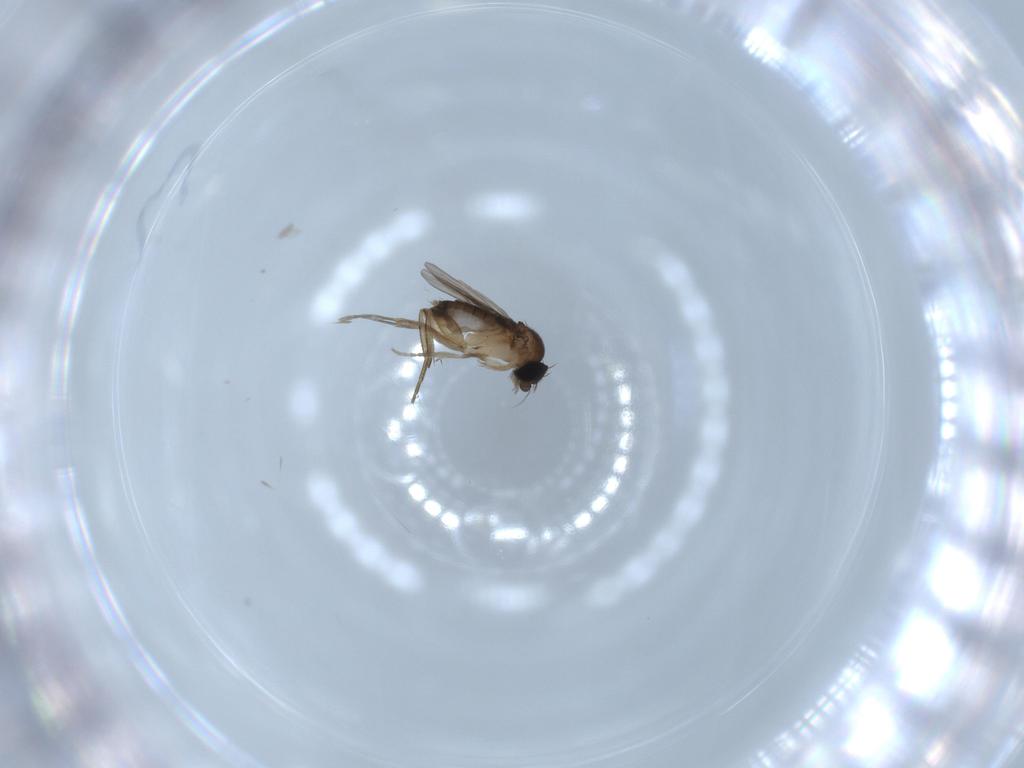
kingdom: Animalia
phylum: Arthropoda
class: Insecta
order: Diptera
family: Phoridae
